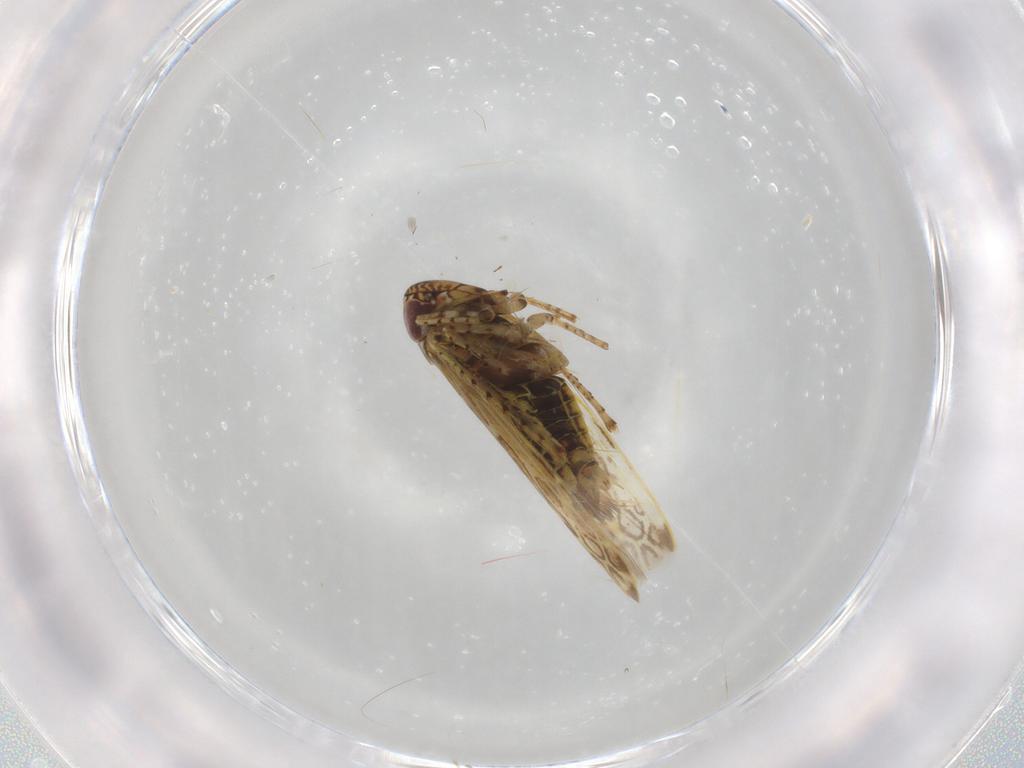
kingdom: Animalia
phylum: Arthropoda
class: Insecta
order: Hemiptera
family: Cicadellidae
